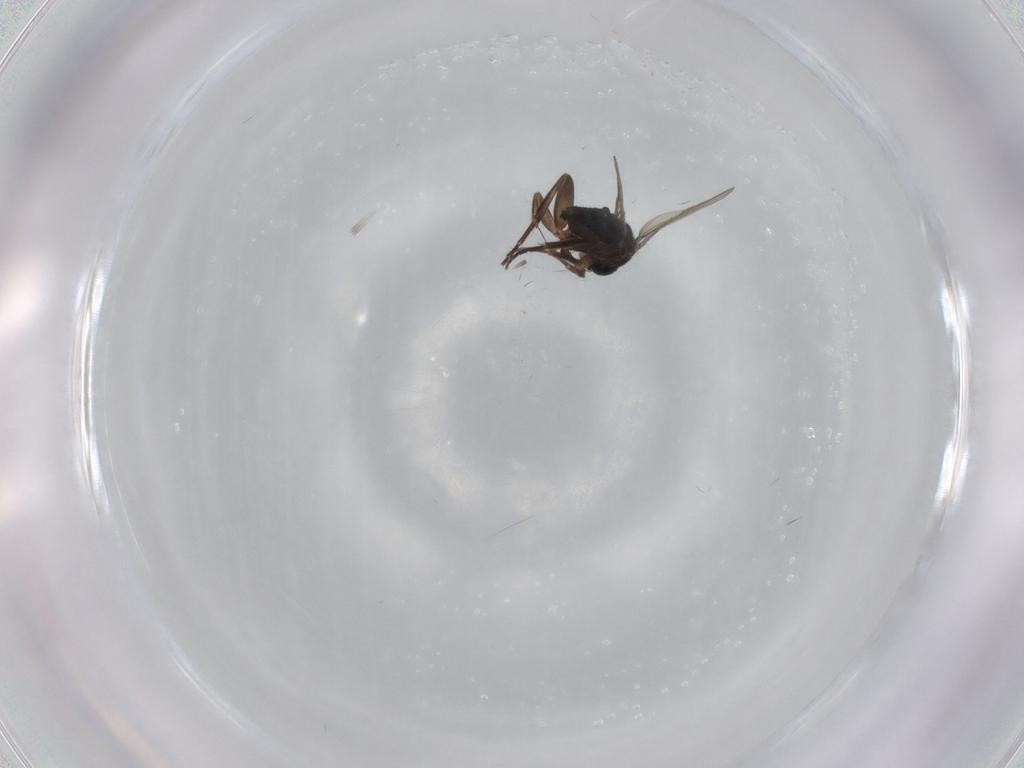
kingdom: Animalia
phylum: Arthropoda
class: Insecta
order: Diptera
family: Phoridae
